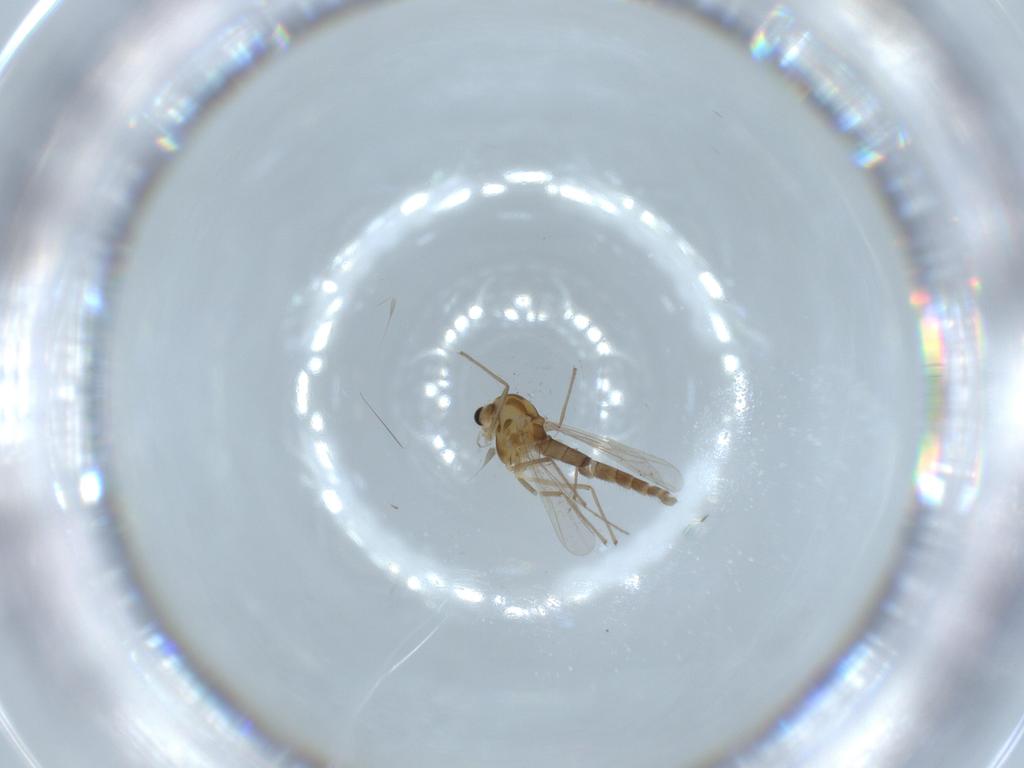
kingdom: Animalia
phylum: Arthropoda
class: Insecta
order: Diptera
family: Chironomidae
